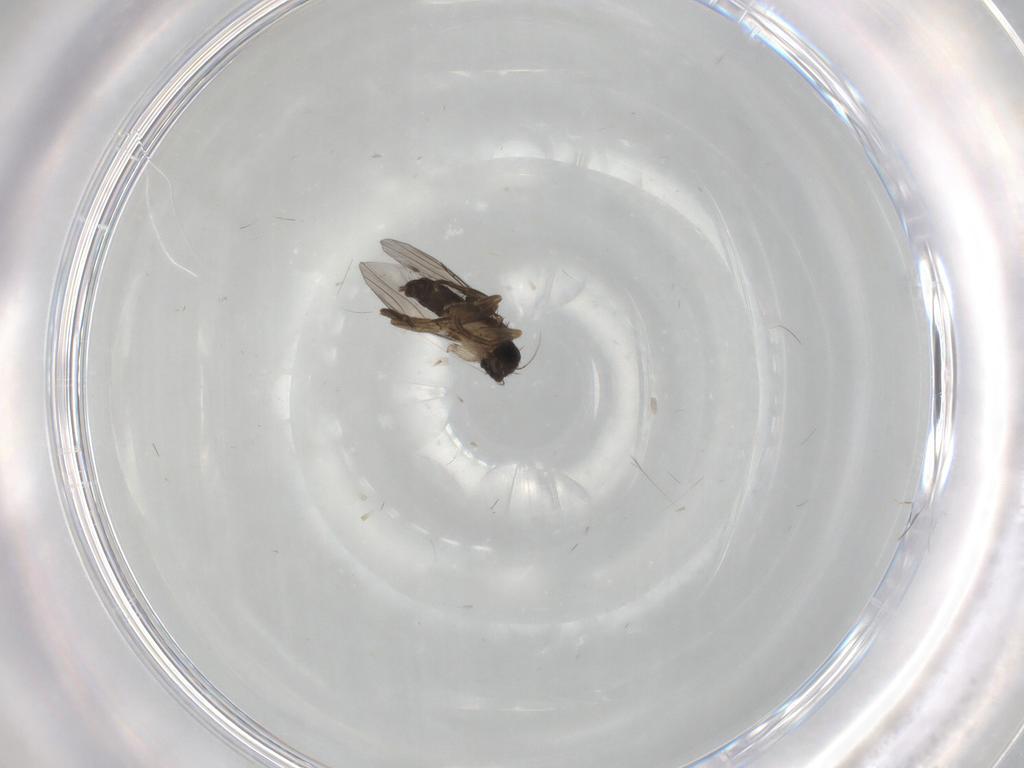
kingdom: Animalia
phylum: Arthropoda
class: Insecta
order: Diptera
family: Phoridae
